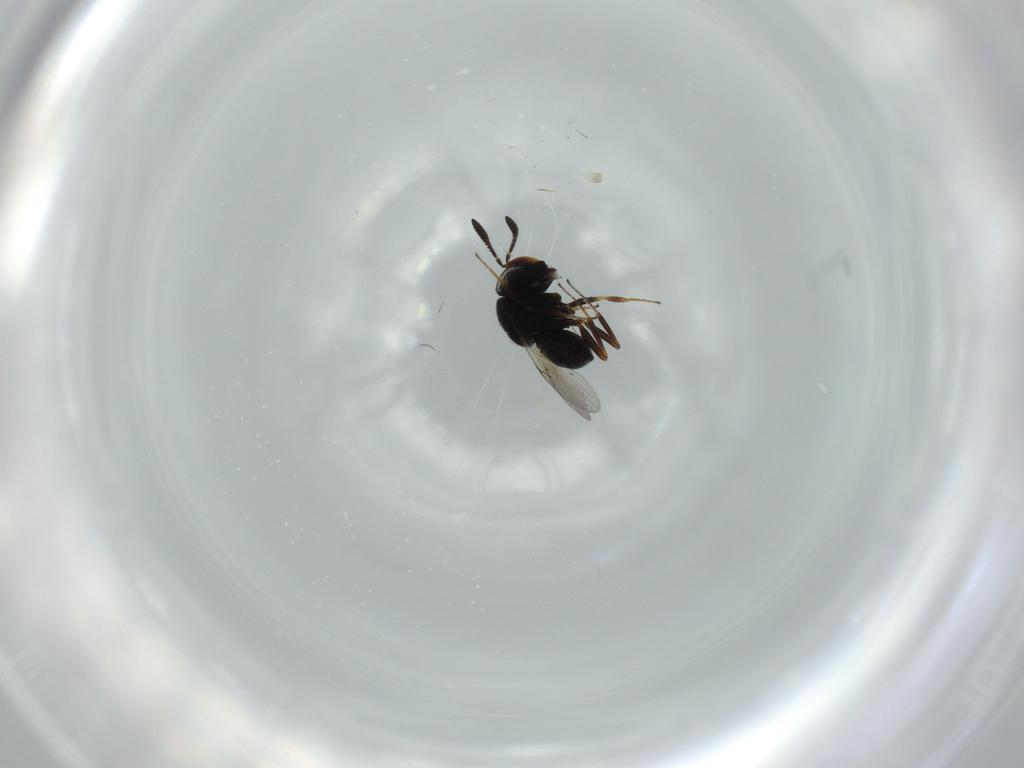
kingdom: Animalia
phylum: Arthropoda
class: Insecta
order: Hymenoptera
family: Scelionidae
